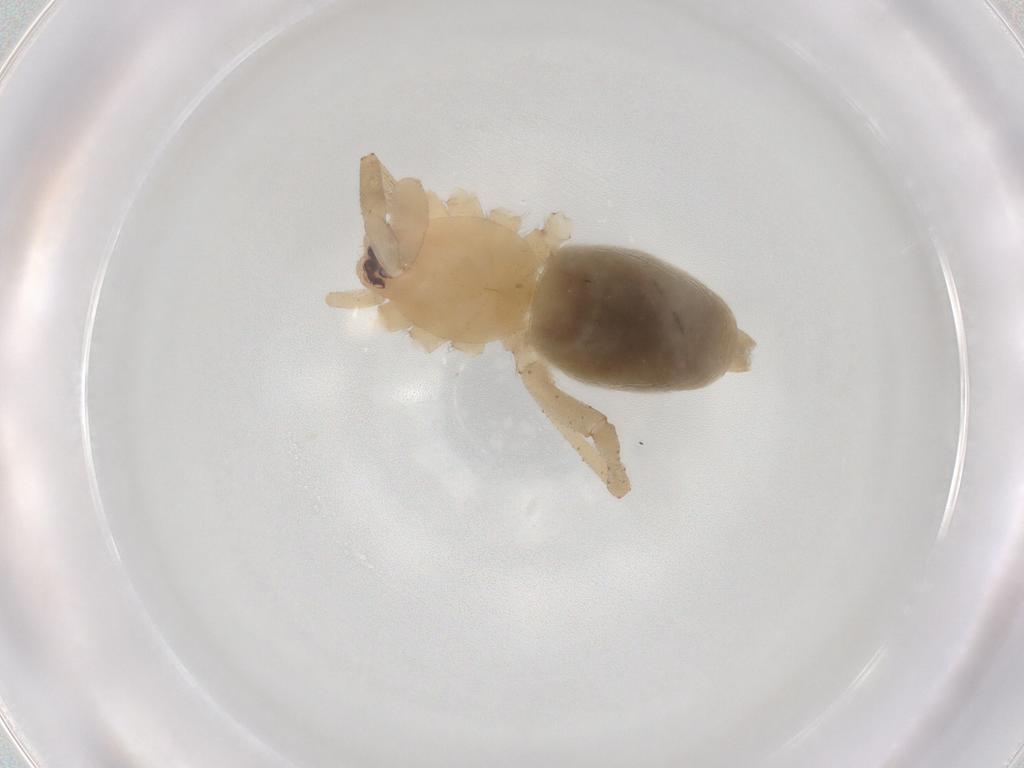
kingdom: Animalia
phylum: Arthropoda
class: Arachnida
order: Araneae
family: Gnaphosidae
